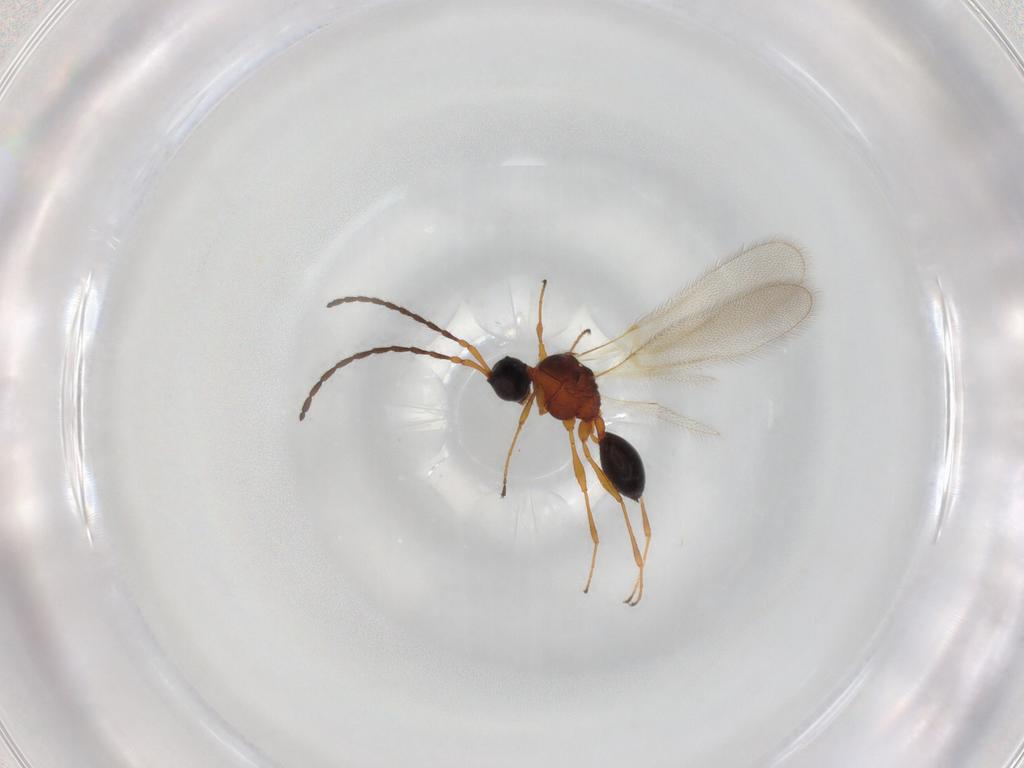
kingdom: Animalia
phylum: Arthropoda
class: Insecta
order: Hymenoptera
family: Diapriidae
